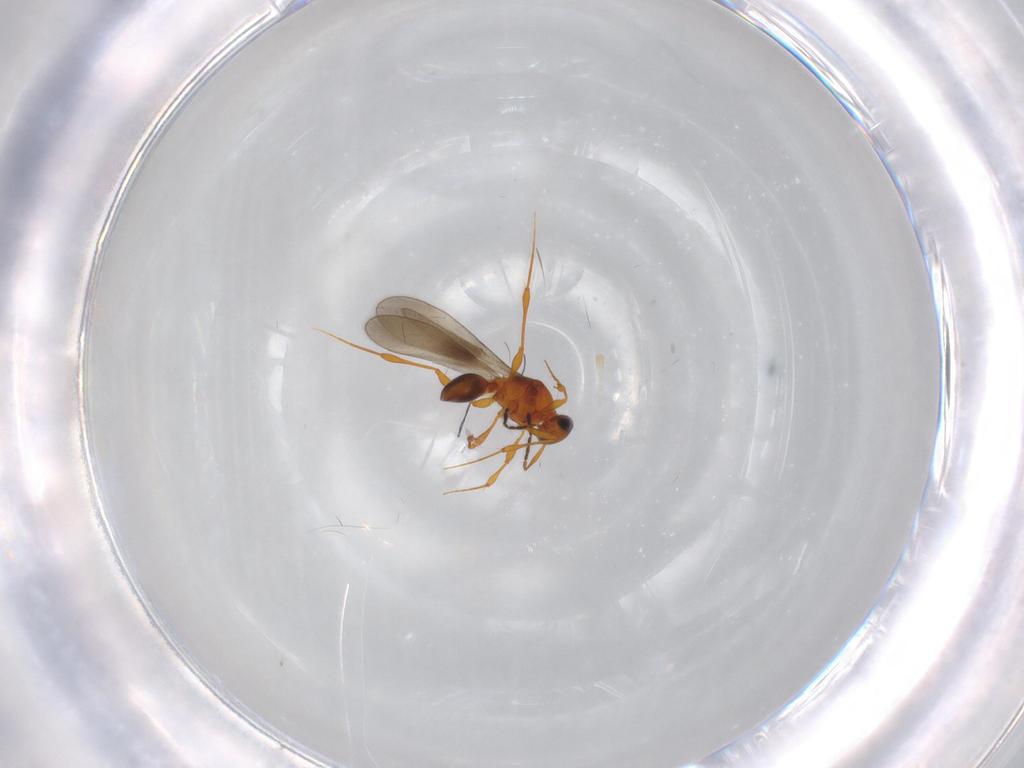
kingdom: Animalia
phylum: Arthropoda
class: Insecta
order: Hymenoptera
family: Platygastridae
